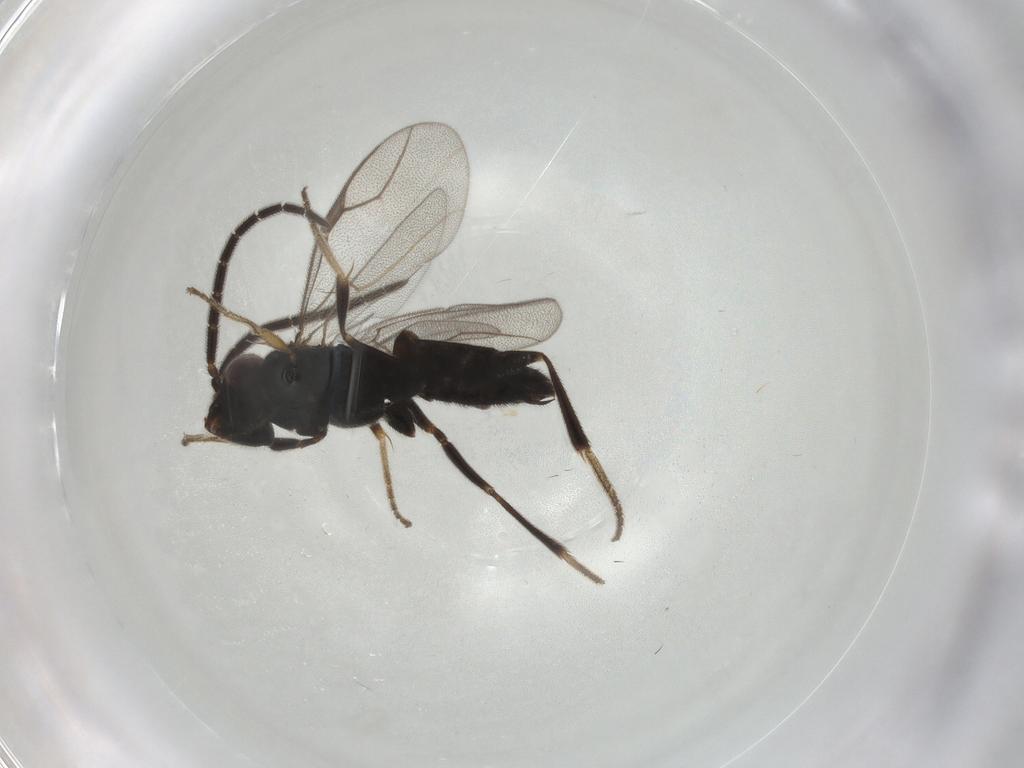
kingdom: Animalia
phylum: Arthropoda
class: Insecta
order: Hymenoptera
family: Dryinidae
